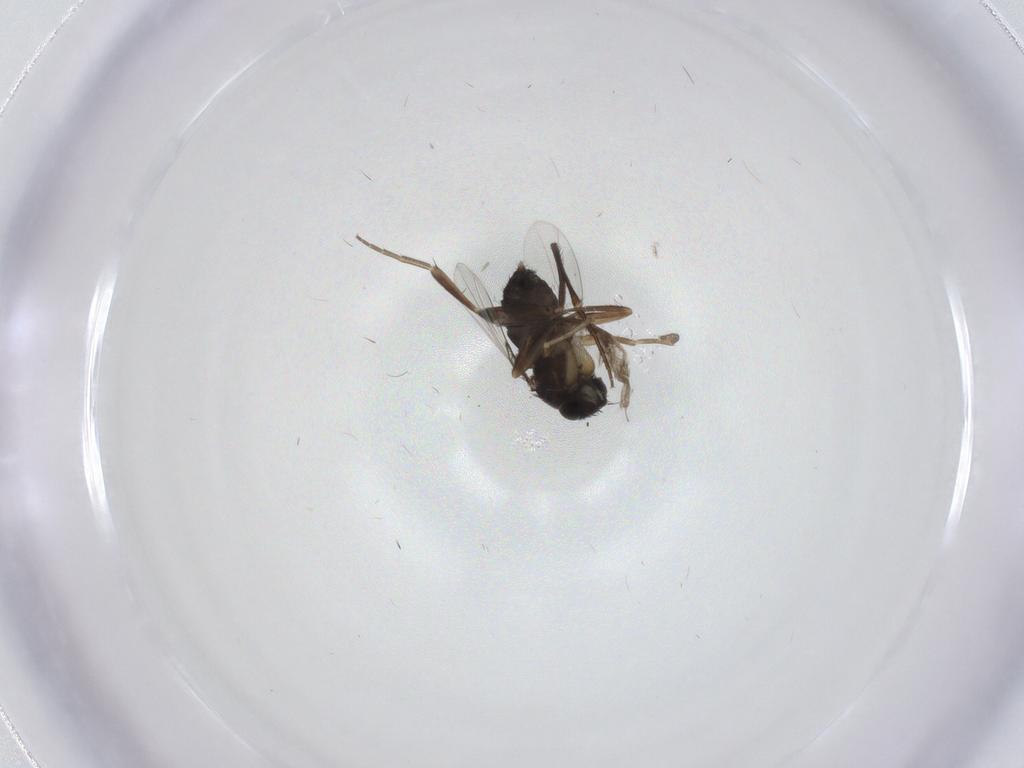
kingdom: Animalia
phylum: Arthropoda
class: Insecta
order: Diptera
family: Phoridae
